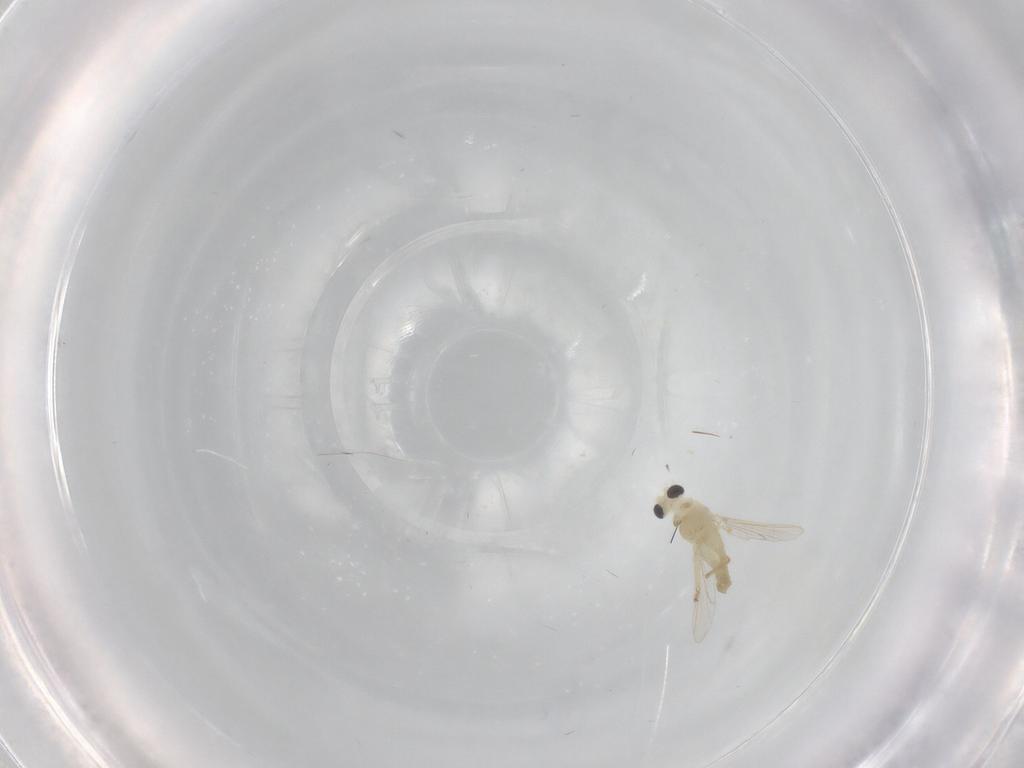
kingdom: Animalia
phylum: Arthropoda
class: Insecta
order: Diptera
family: Chironomidae
